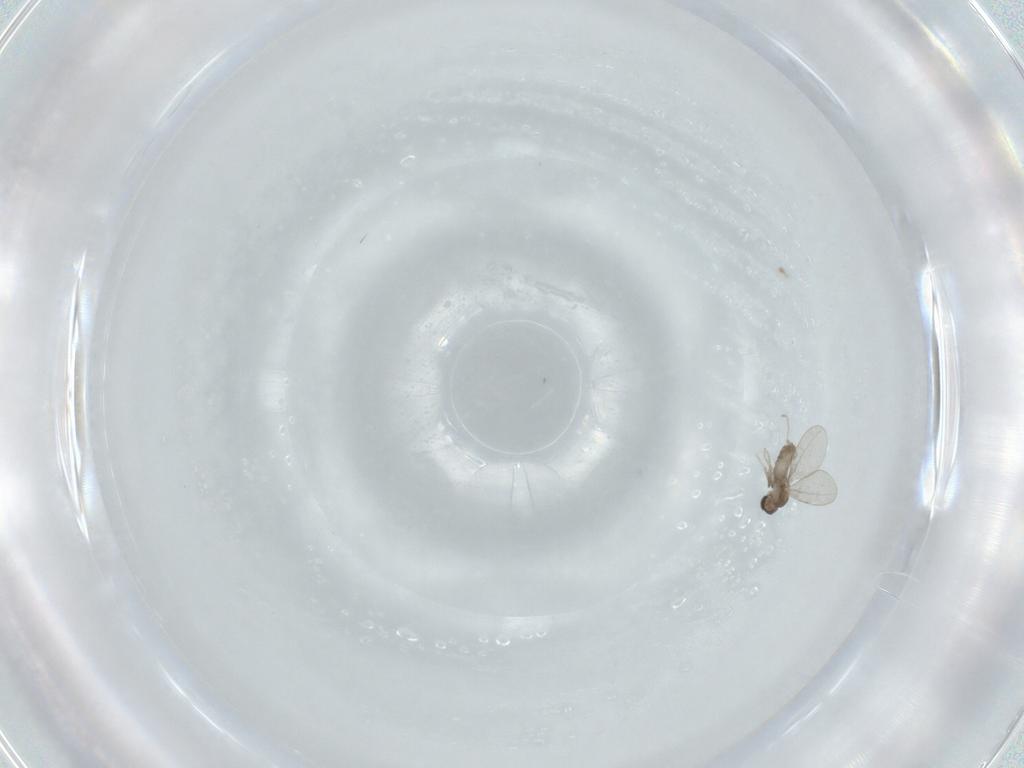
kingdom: Animalia
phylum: Arthropoda
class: Insecta
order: Diptera
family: Cecidomyiidae
